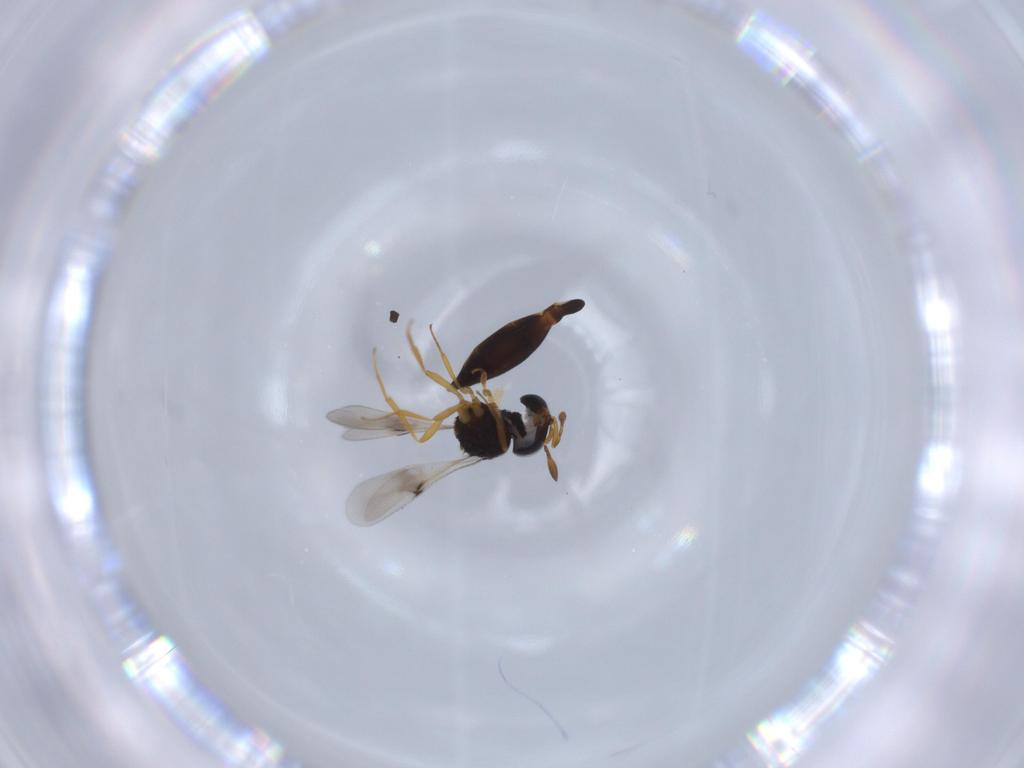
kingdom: Animalia
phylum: Arthropoda
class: Insecta
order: Hymenoptera
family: Scelionidae
